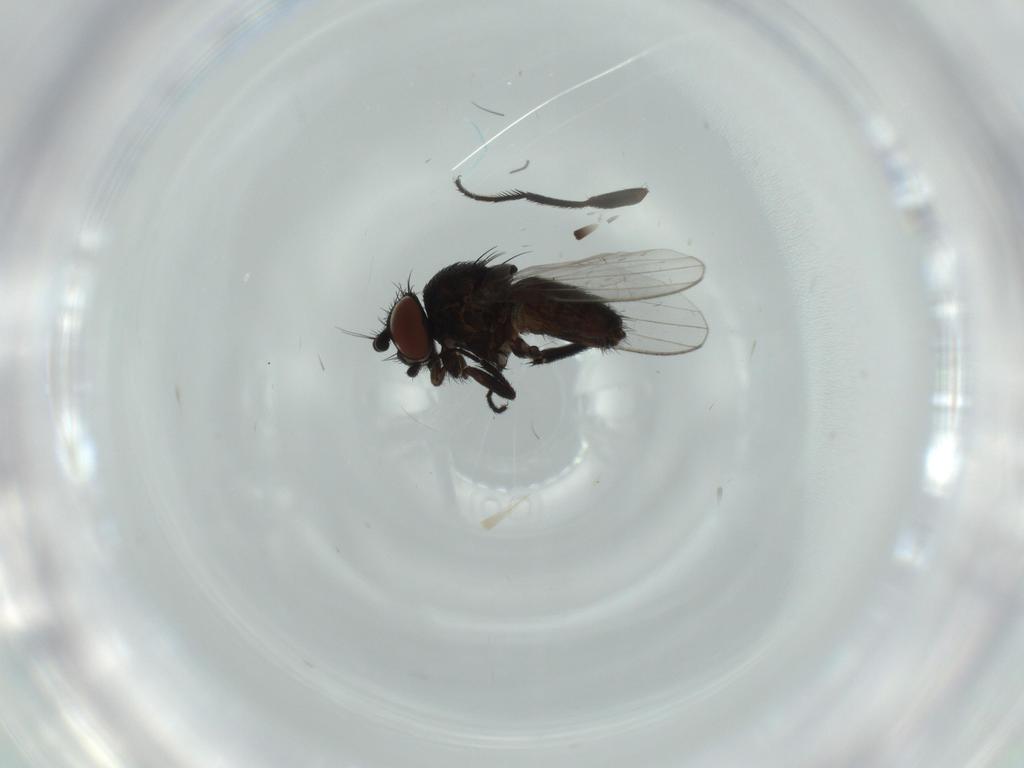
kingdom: Animalia
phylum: Arthropoda
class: Insecta
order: Diptera
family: Milichiidae
